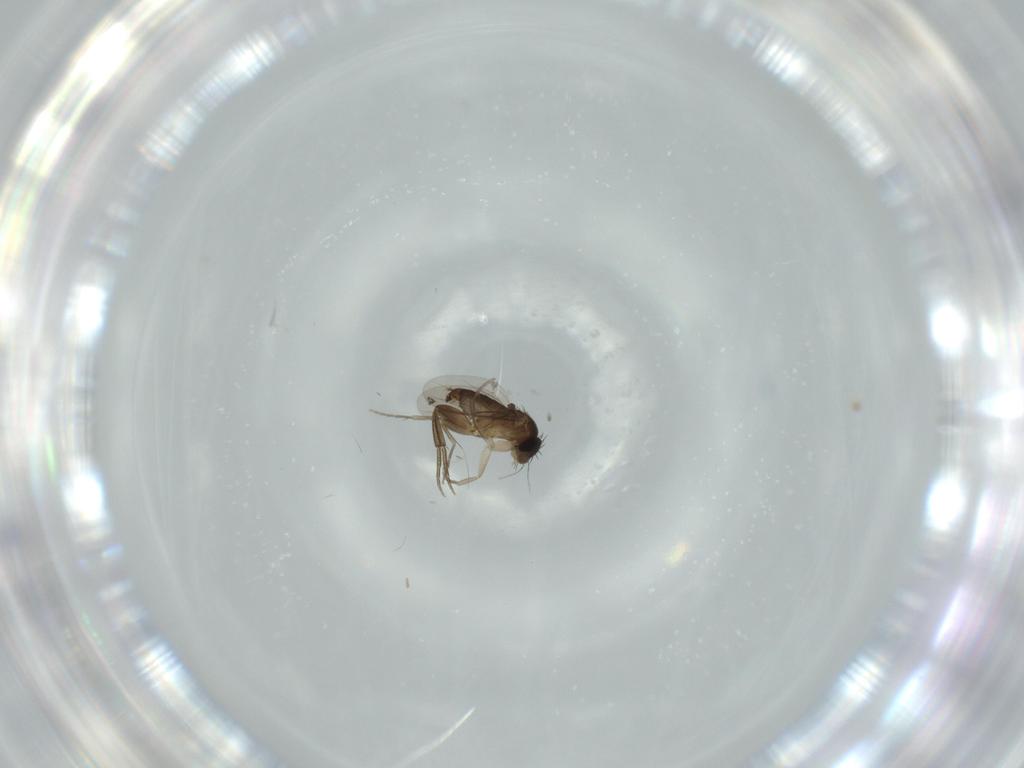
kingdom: Animalia
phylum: Arthropoda
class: Insecta
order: Diptera
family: Phoridae
